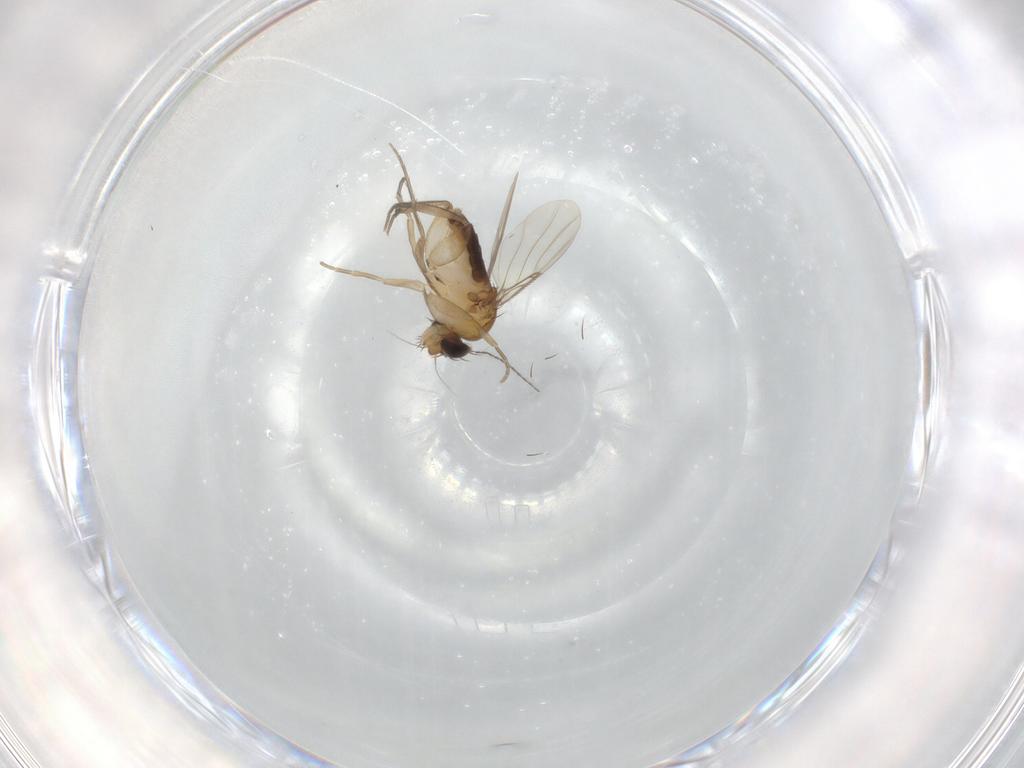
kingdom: Animalia
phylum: Arthropoda
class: Insecta
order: Diptera
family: Phoridae
